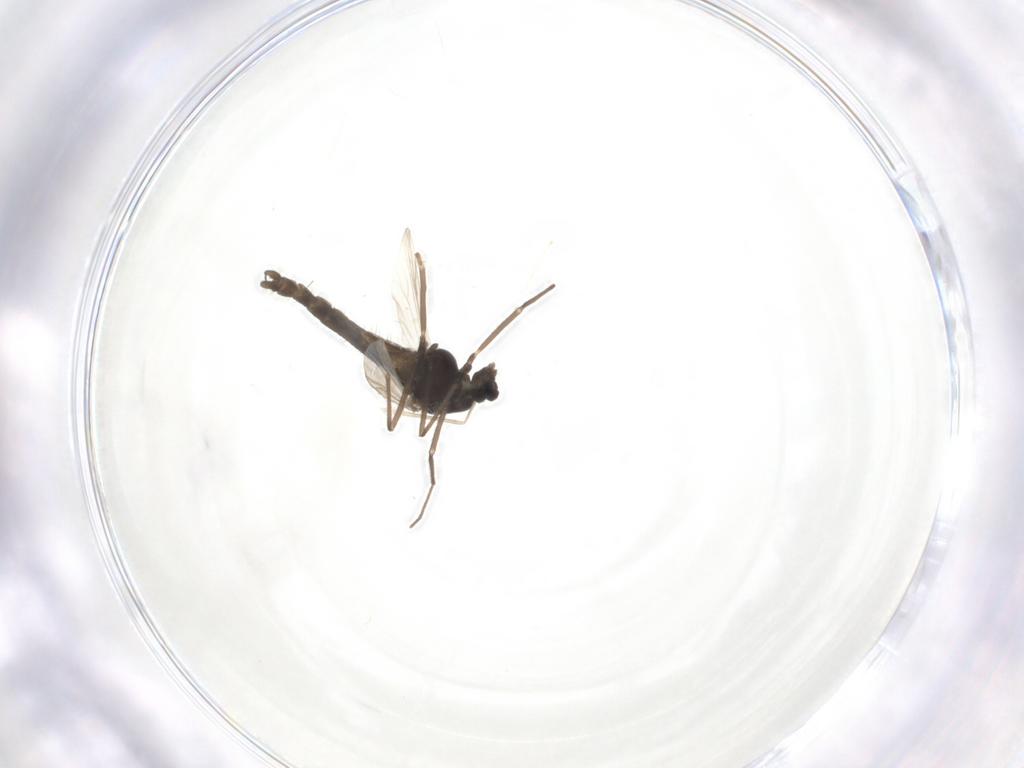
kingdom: Animalia
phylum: Arthropoda
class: Insecta
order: Diptera
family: Chironomidae
